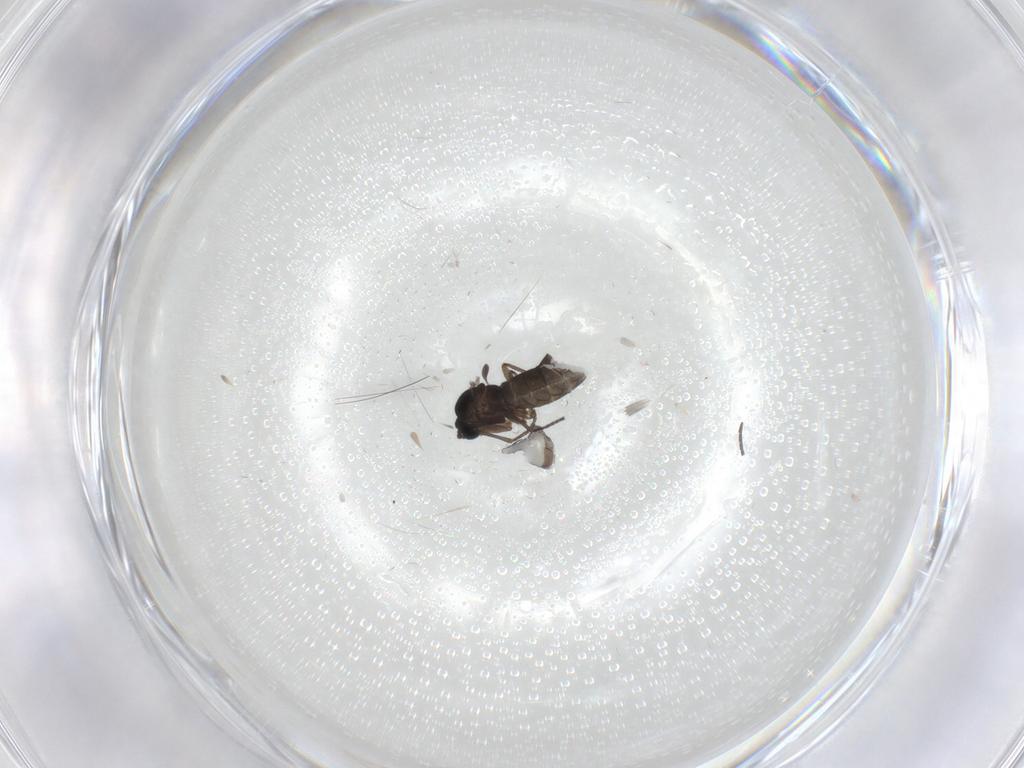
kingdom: Animalia
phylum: Arthropoda
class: Insecta
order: Diptera
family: Sciaridae
